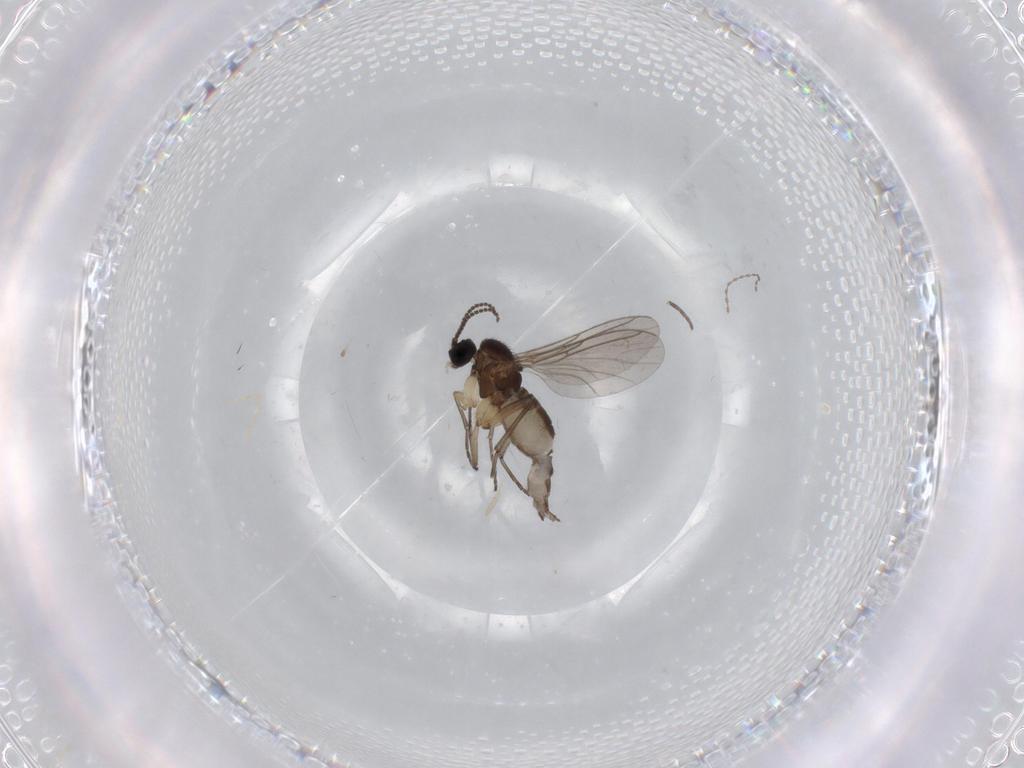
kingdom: Animalia
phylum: Arthropoda
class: Insecta
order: Diptera
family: Sciaridae
